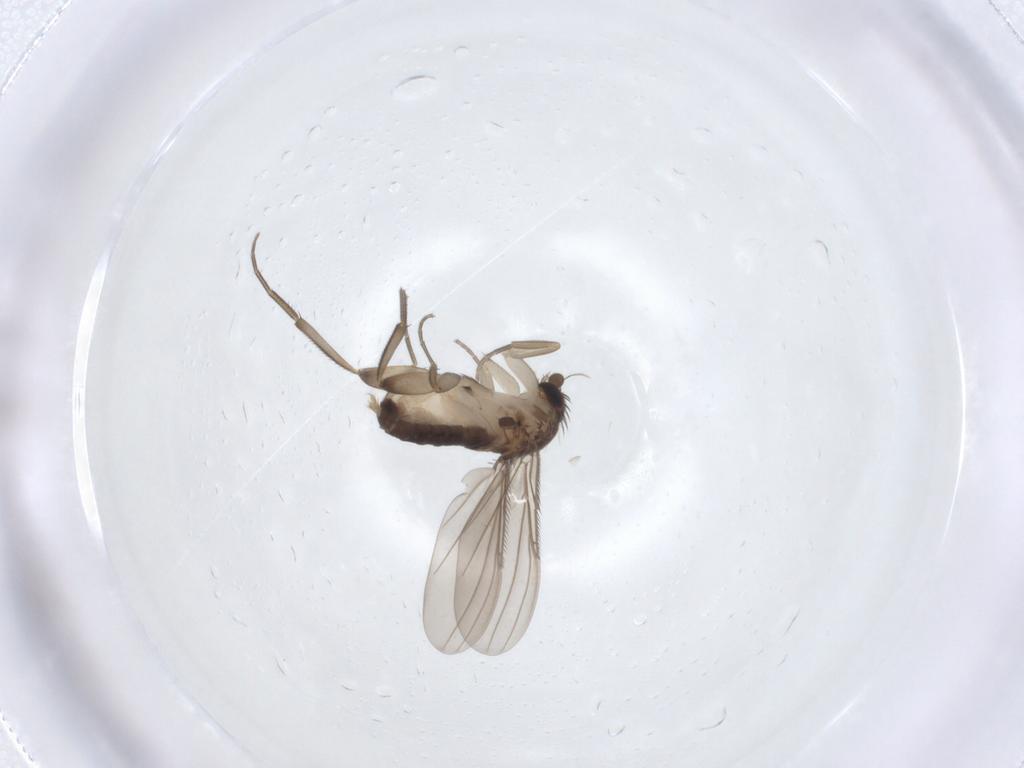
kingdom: Animalia
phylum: Arthropoda
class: Insecta
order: Diptera
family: Phoridae
